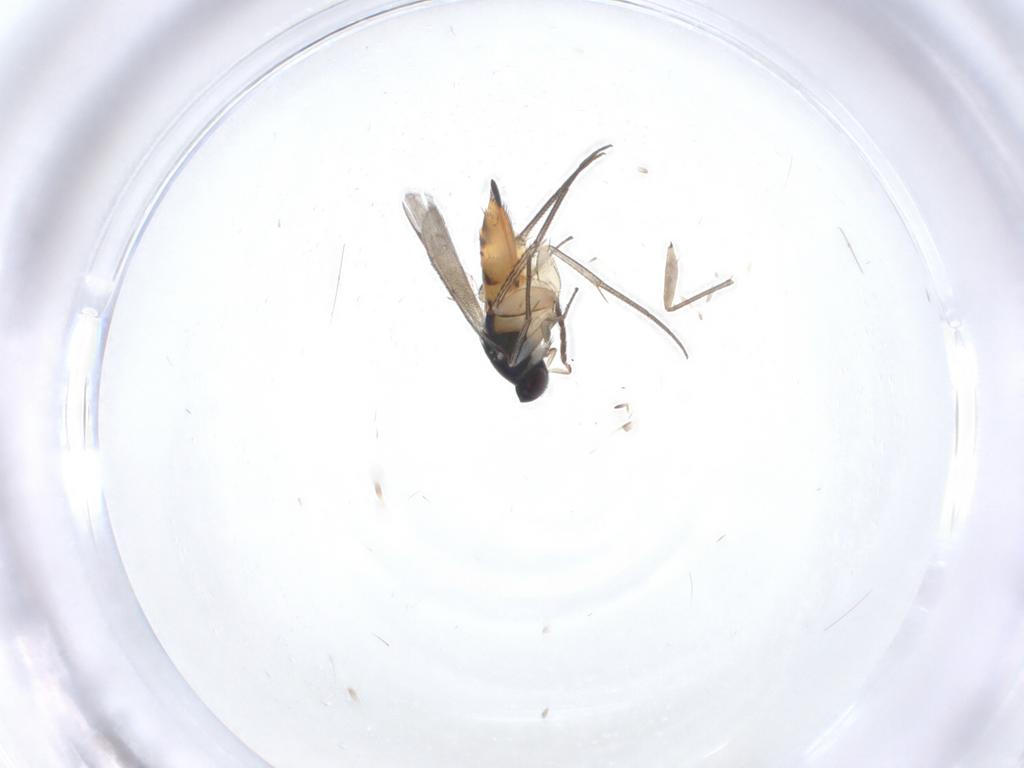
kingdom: Animalia
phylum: Arthropoda
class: Insecta
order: Hymenoptera
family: Eulophidae
